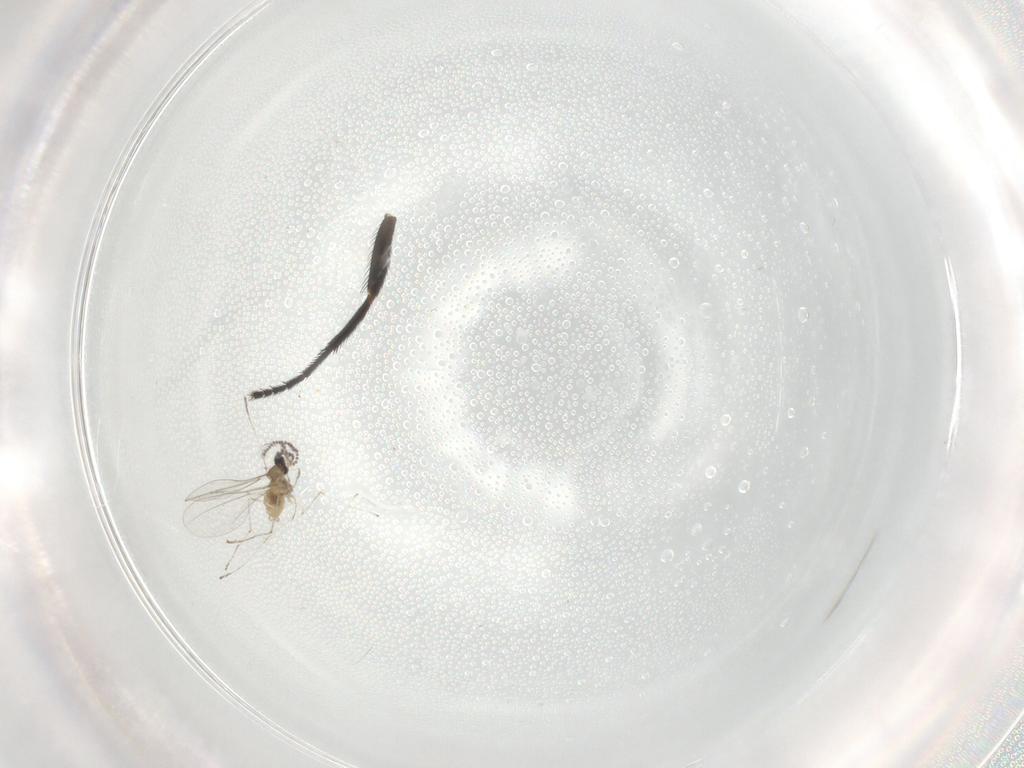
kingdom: Animalia
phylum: Arthropoda
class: Insecta
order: Diptera
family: Milichiidae
